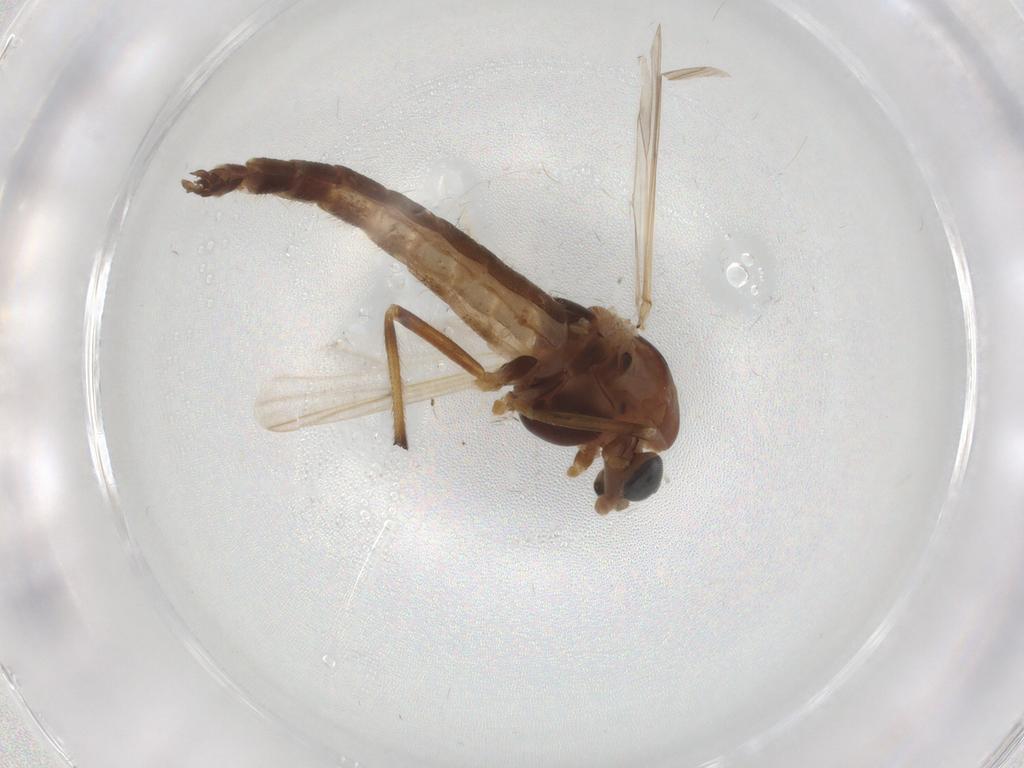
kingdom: Animalia
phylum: Arthropoda
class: Insecta
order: Diptera
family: Chironomidae
